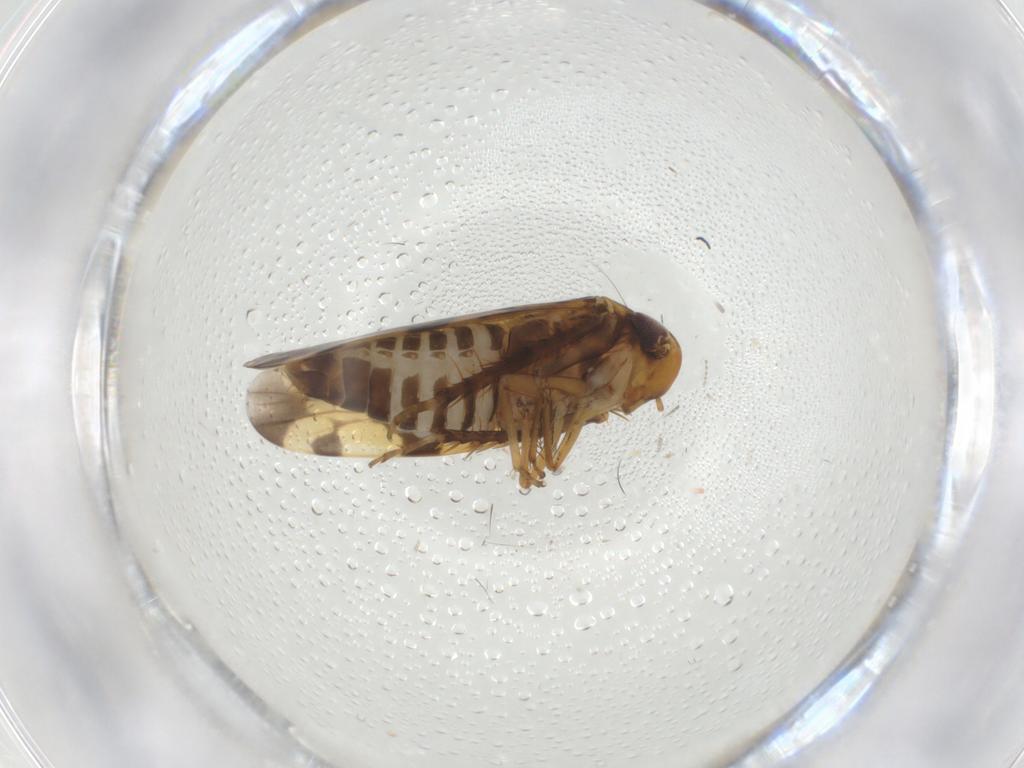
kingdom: Animalia
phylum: Arthropoda
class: Insecta
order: Hemiptera
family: Cicadellidae
